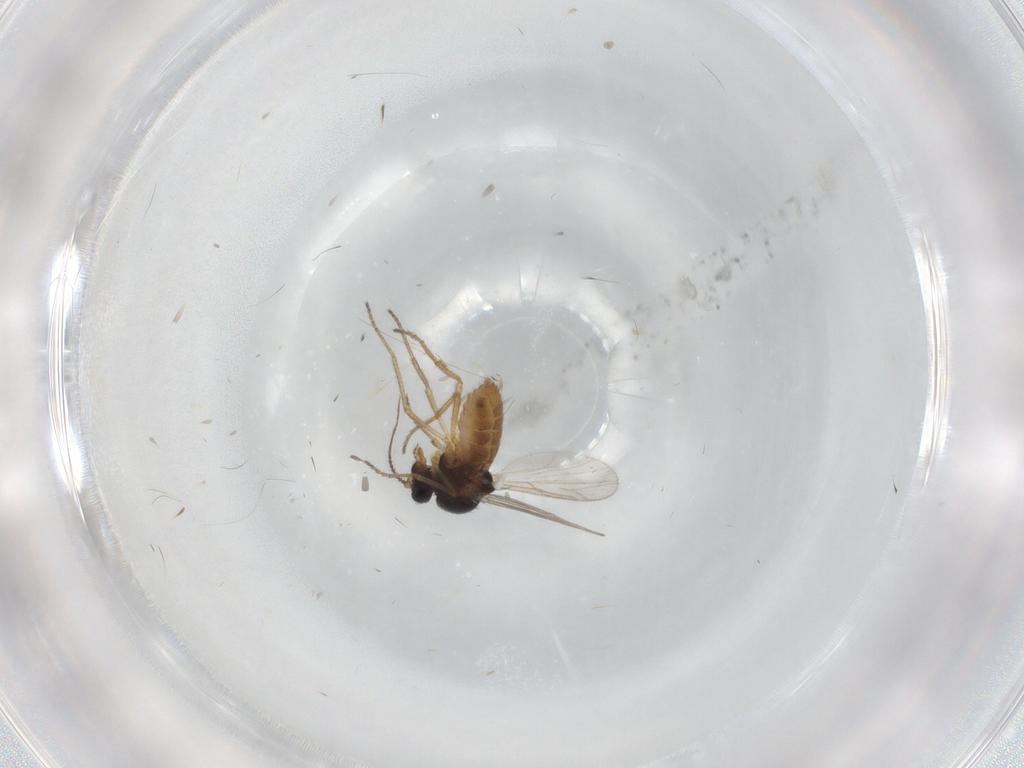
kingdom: Animalia
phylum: Arthropoda
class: Insecta
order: Diptera
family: Ceratopogonidae
